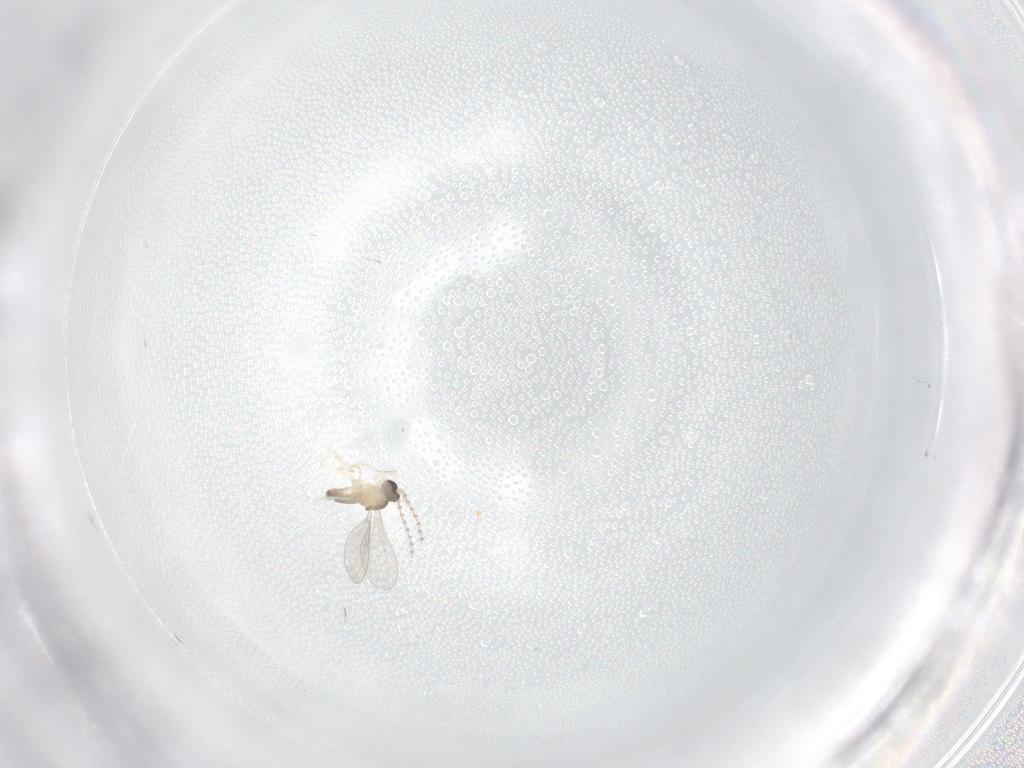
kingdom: Animalia
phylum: Arthropoda
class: Insecta
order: Diptera
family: Cecidomyiidae
